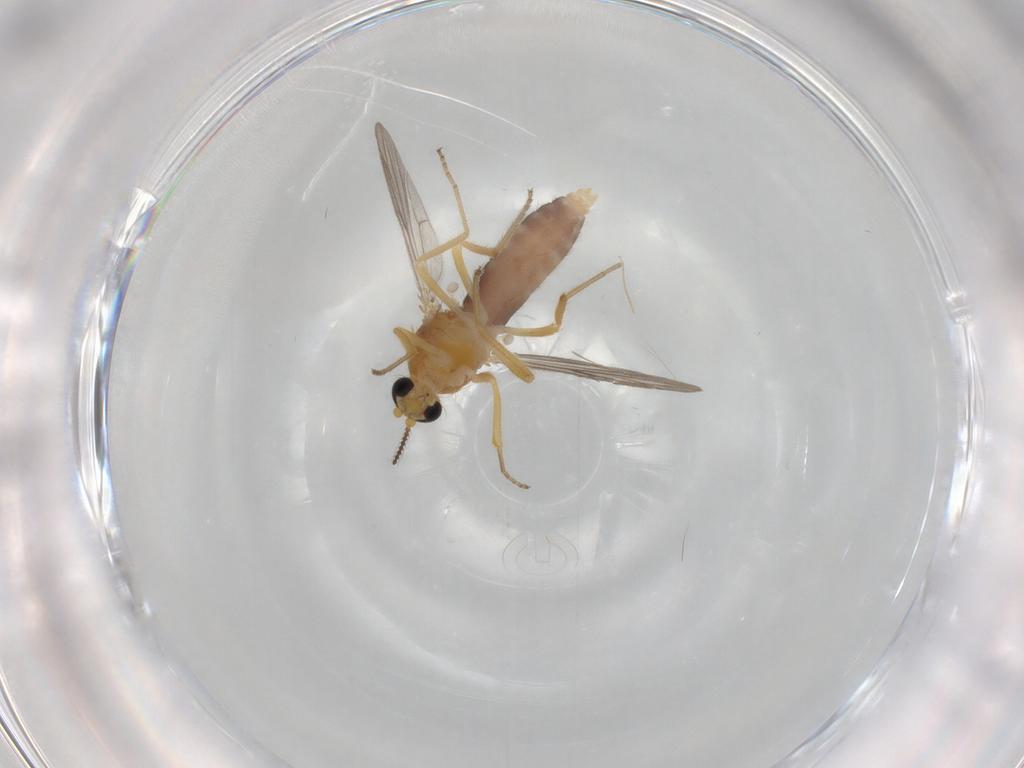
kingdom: Animalia
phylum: Arthropoda
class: Insecta
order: Diptera
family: Ceratopogonidae
